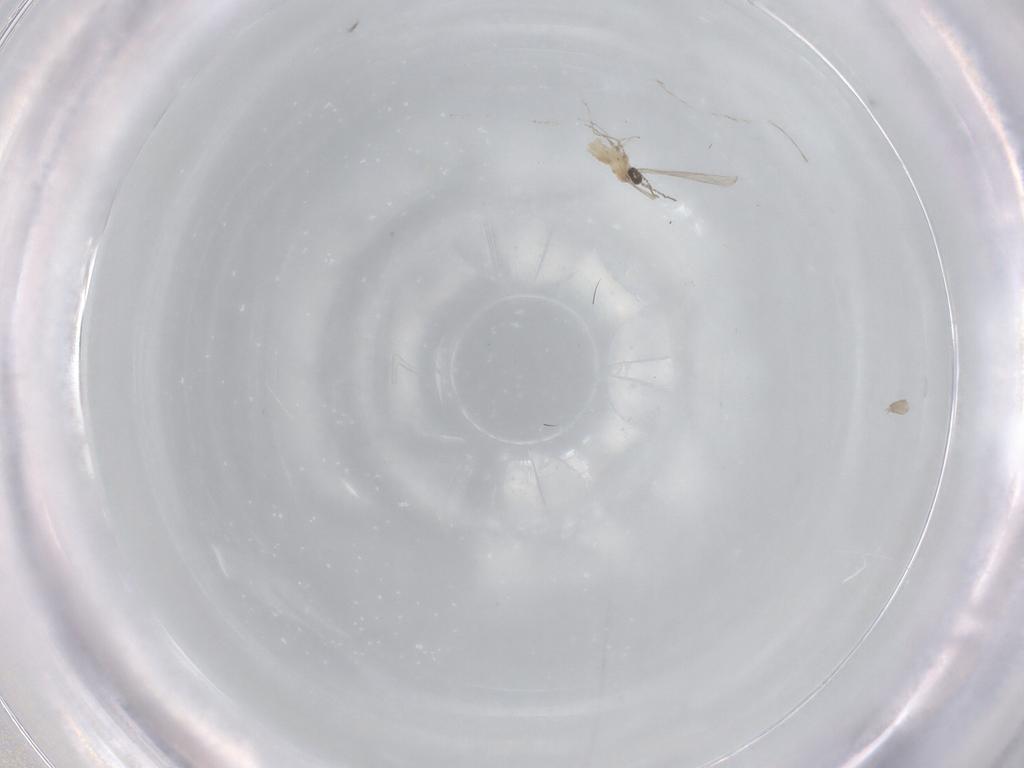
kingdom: Animalia
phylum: Arthropoda
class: Insecta
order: Diptera
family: Cecidomyiidae
